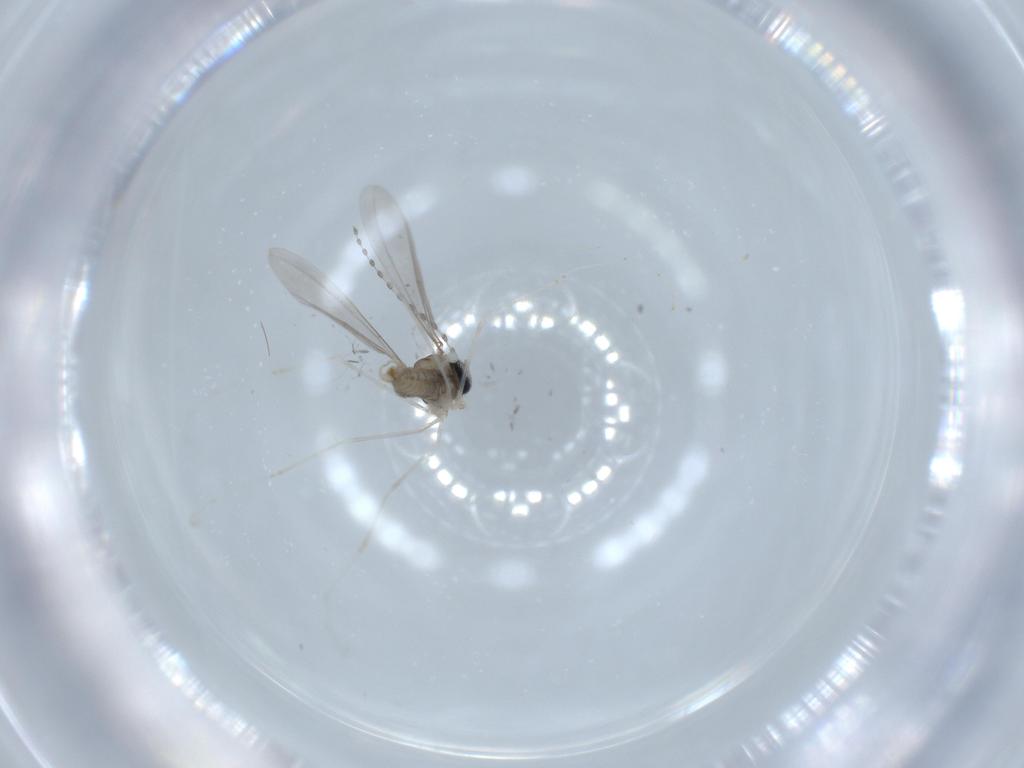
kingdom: Animalia
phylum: Arthropoda
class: Insecta
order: Diptera
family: Cecidomyiidae
